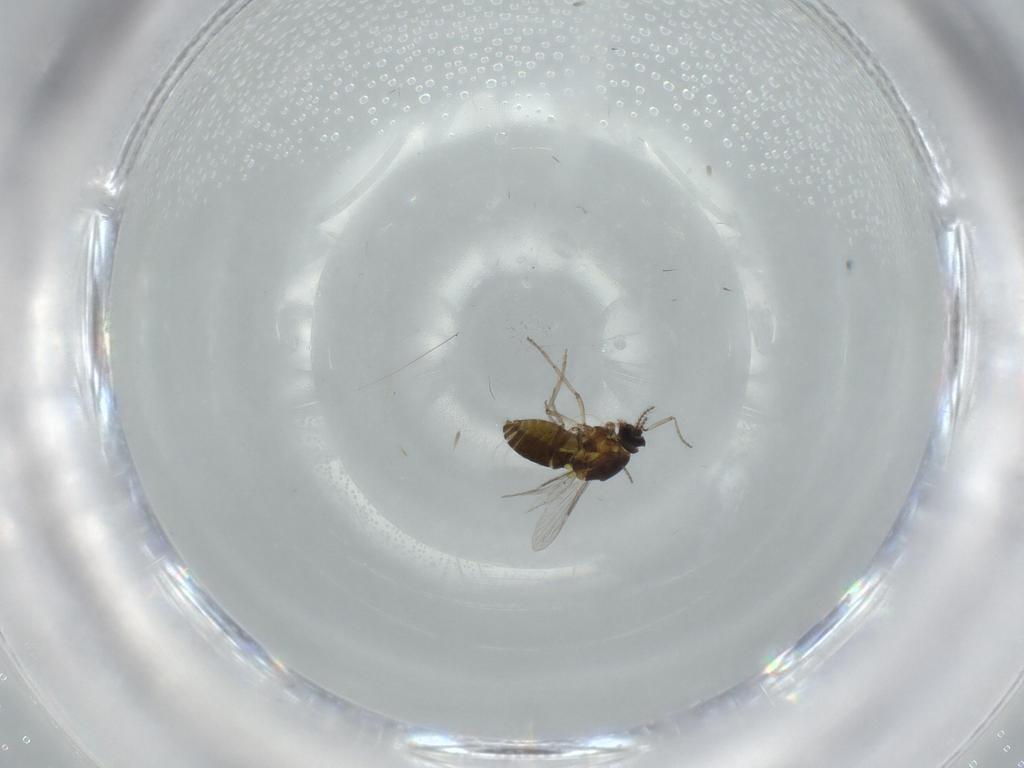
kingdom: Animalia
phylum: Arthropoda
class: Insecta
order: Diptera
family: Ceratopogonidae
